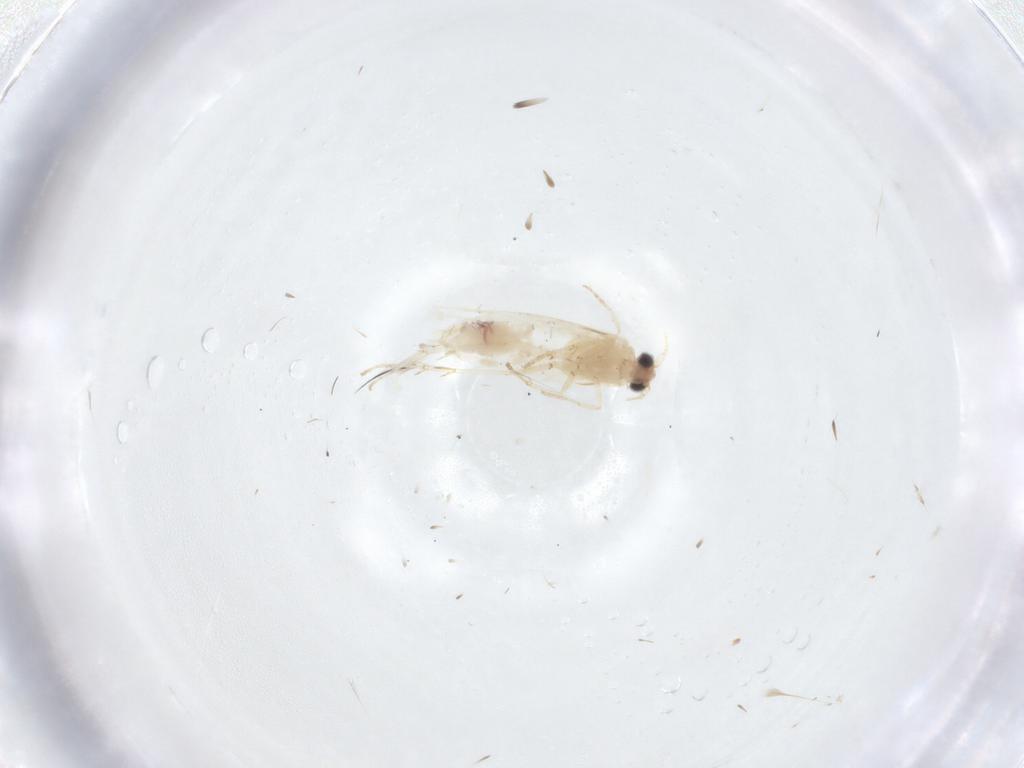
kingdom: Animalia
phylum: Arthropoda
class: Insecta
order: Lepidoptera
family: Nepticulidae
